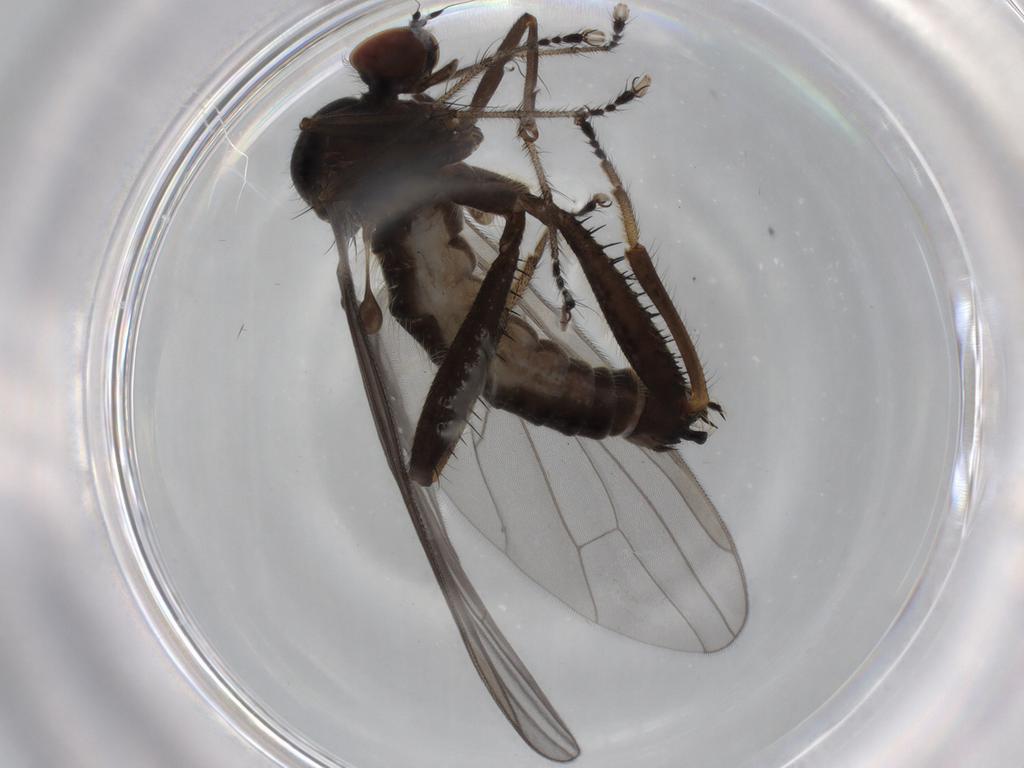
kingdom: Animalia
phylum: Arthropoda
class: Insecta
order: Diptera
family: Hybotidae
